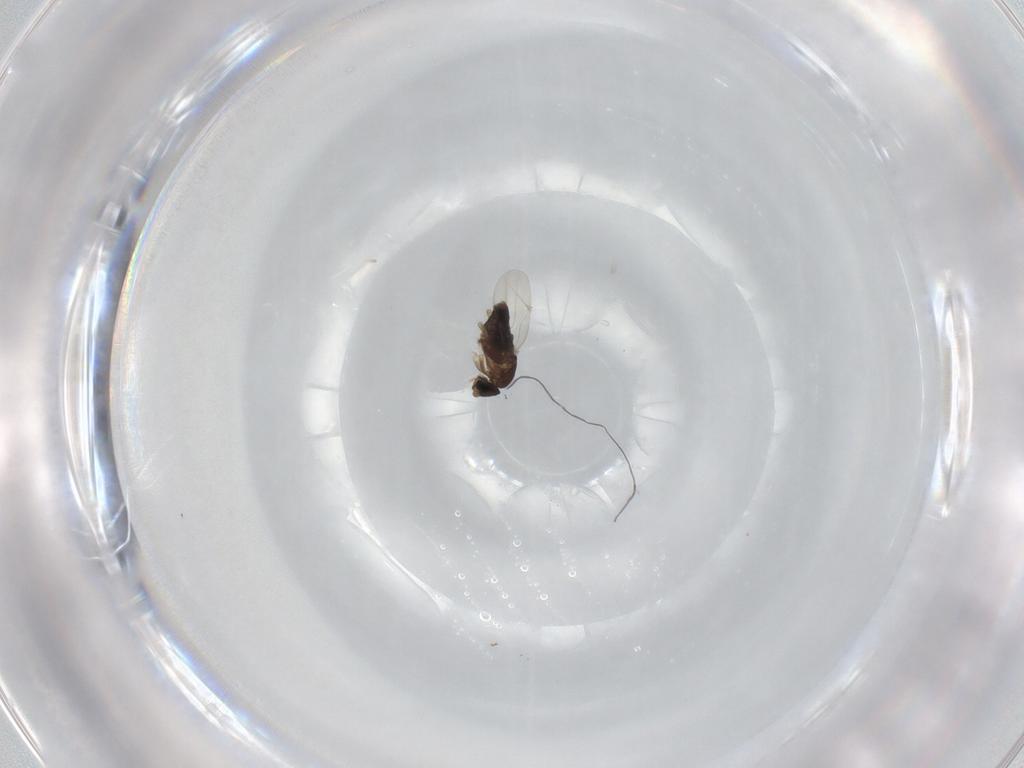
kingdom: Animalia
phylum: Arthropoda
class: Insecta
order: Diptera
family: Phoridae
